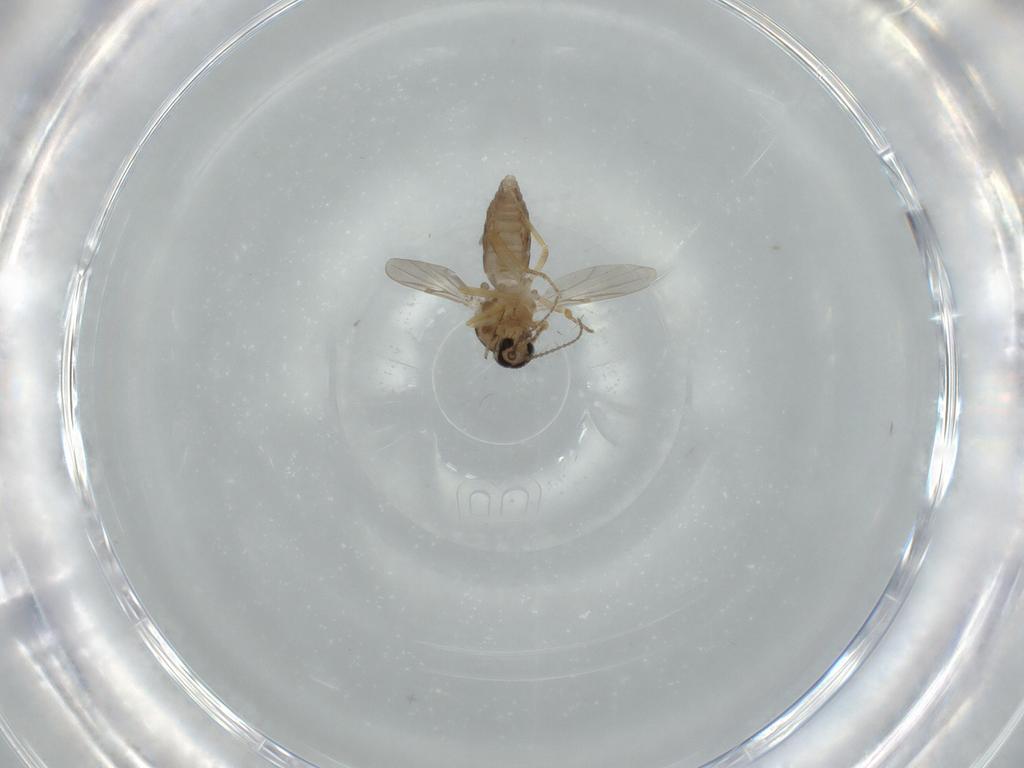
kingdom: Animalia
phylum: Arthropoda
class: Insecta
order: Diptera
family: Ceratopogonidae
